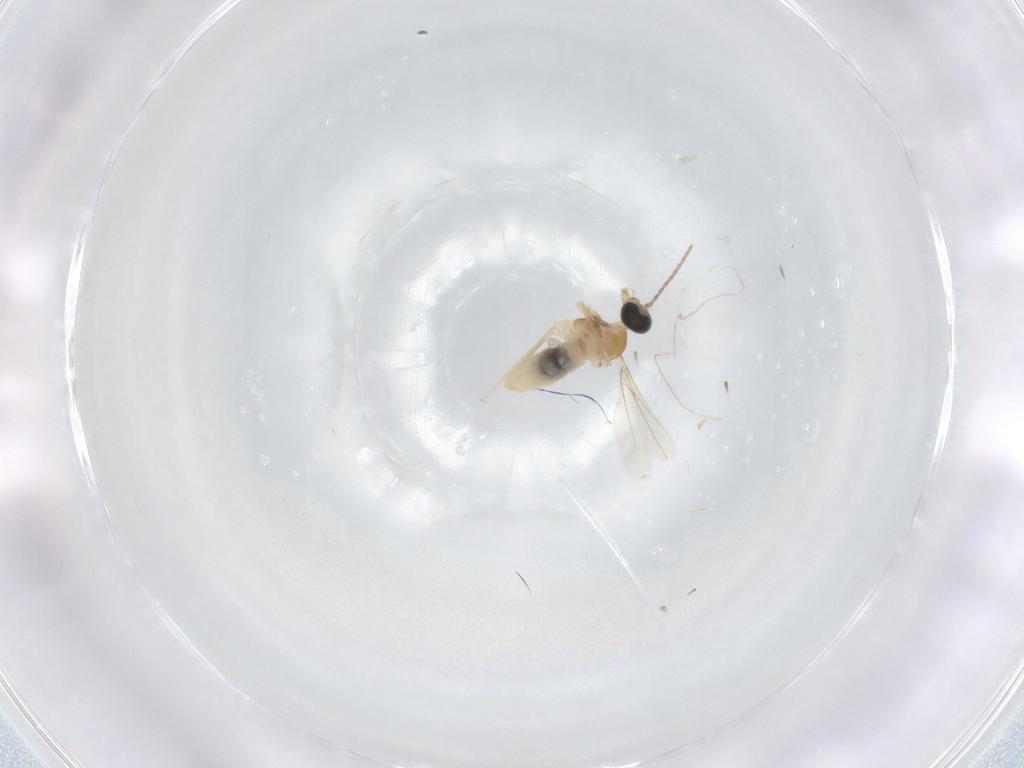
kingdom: Animalia
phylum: Arthropoda
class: Insecta
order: Diptera
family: Cecidomyiidae
